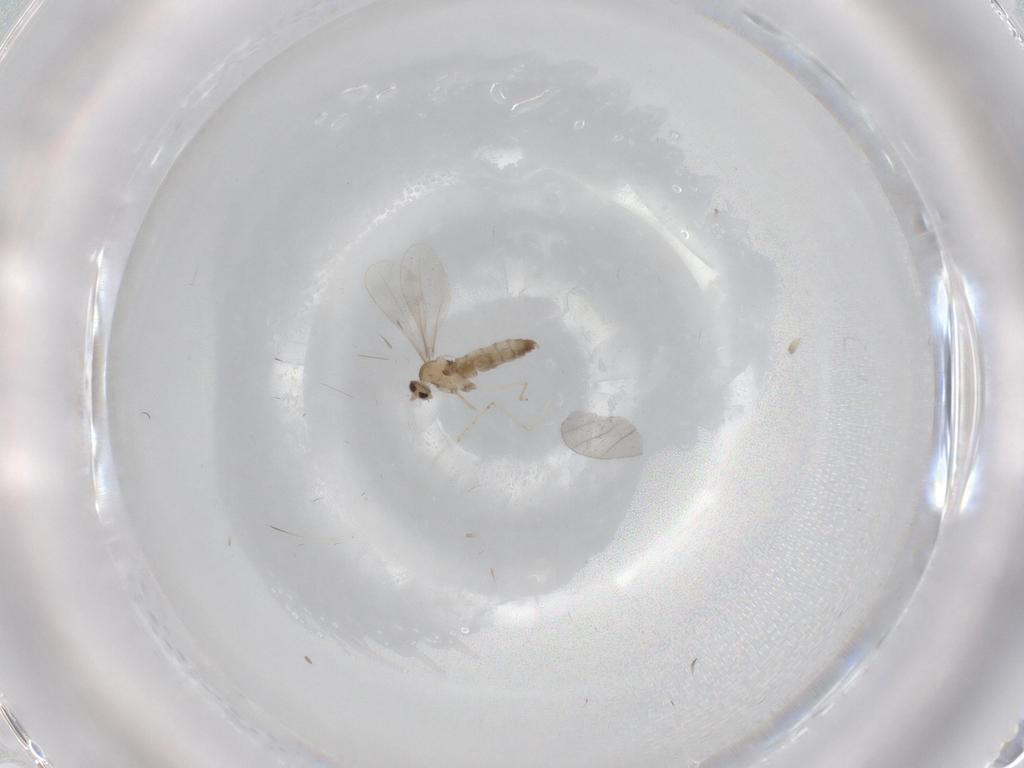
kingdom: Animalia
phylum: Arthropoda
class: Insecta
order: Diptera
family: Cecidomyiidae
